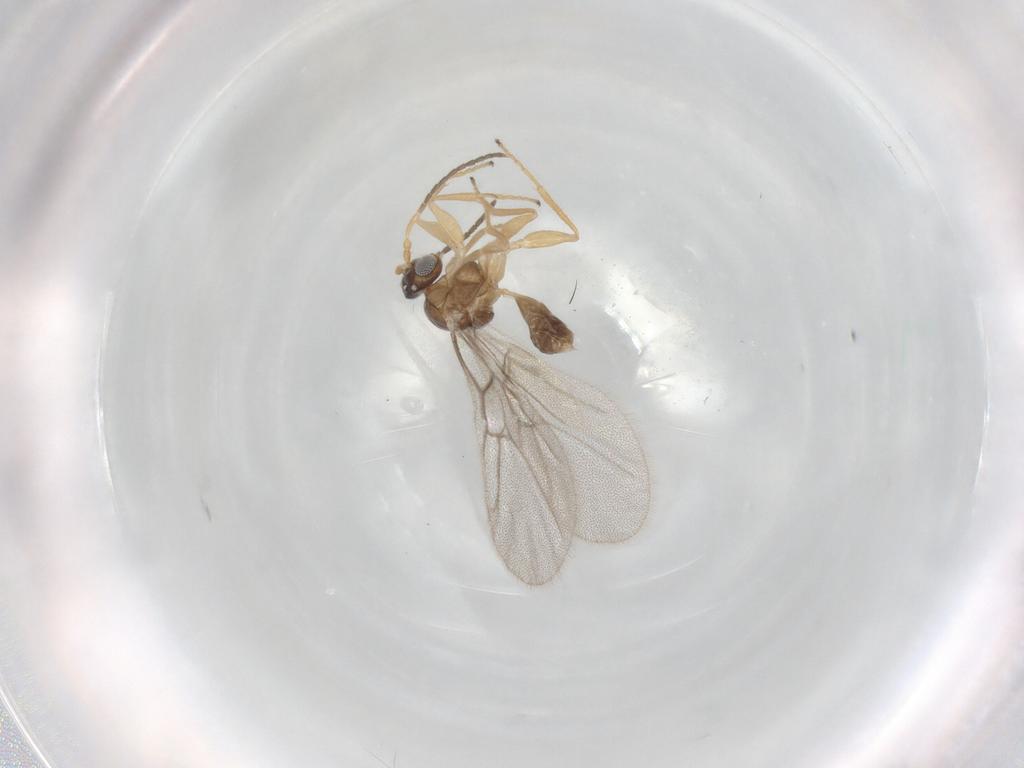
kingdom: Animalia
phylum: Arthropoda
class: Insecta
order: Hymenoptera
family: Cynipidae
